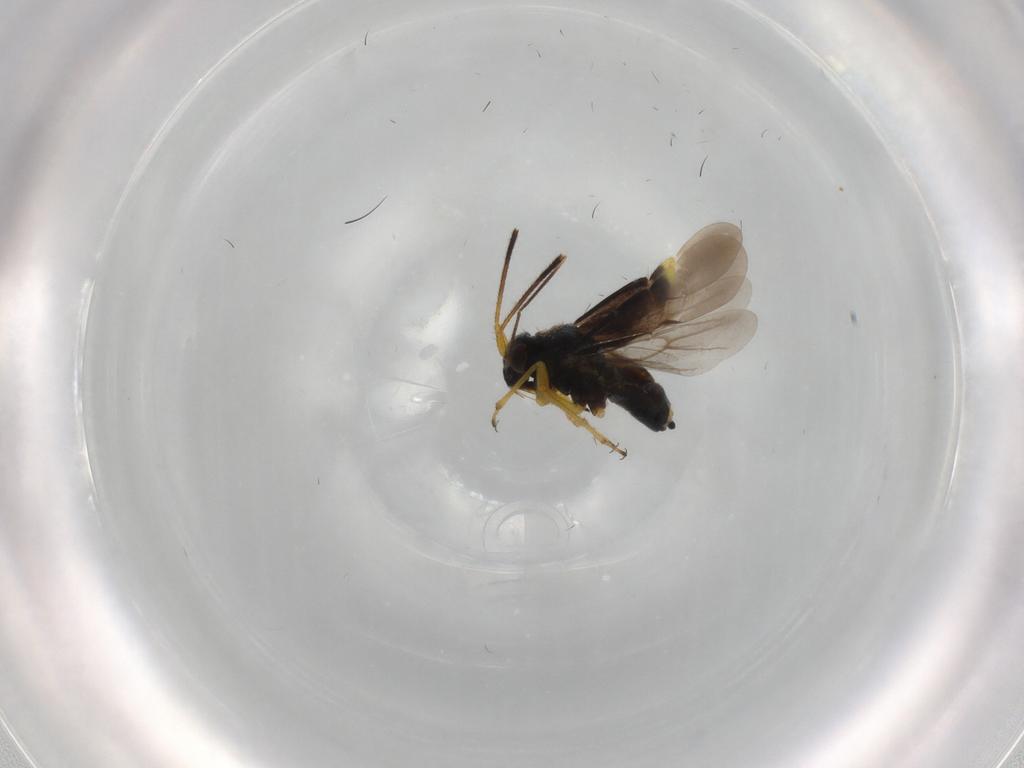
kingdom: Animalia
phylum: Arthropoda
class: Insecta
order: Hemiptera
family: Miridae
